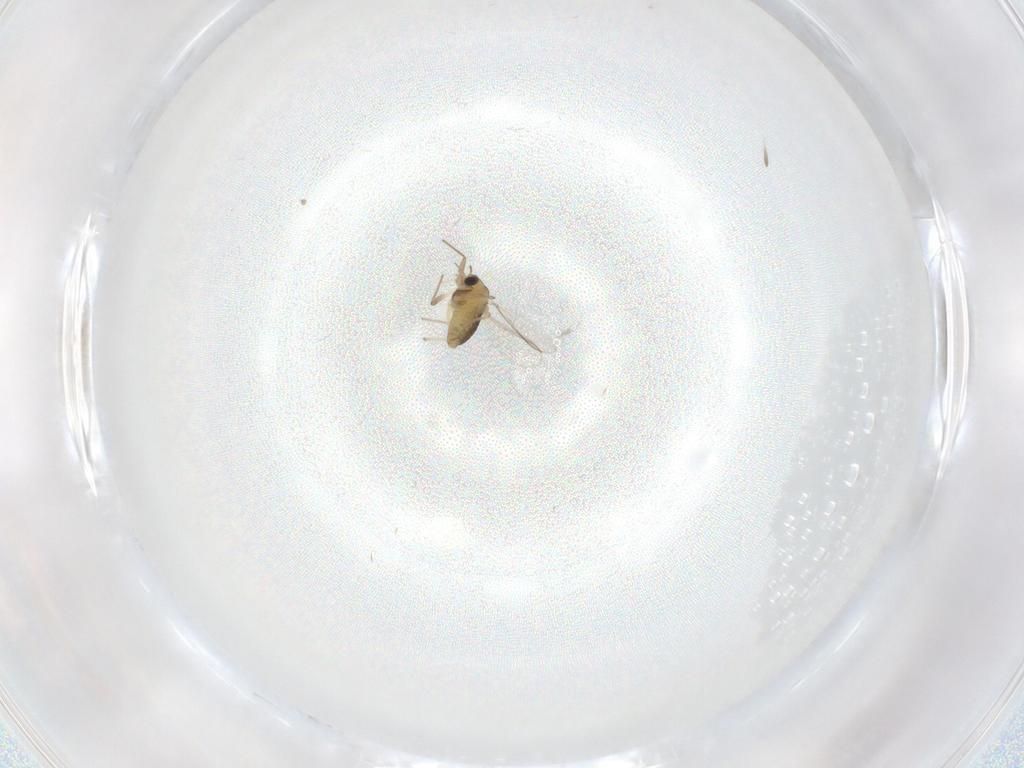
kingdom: Animalia
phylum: Arthropoda
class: Insecta
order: Diptera
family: Chironomidae
